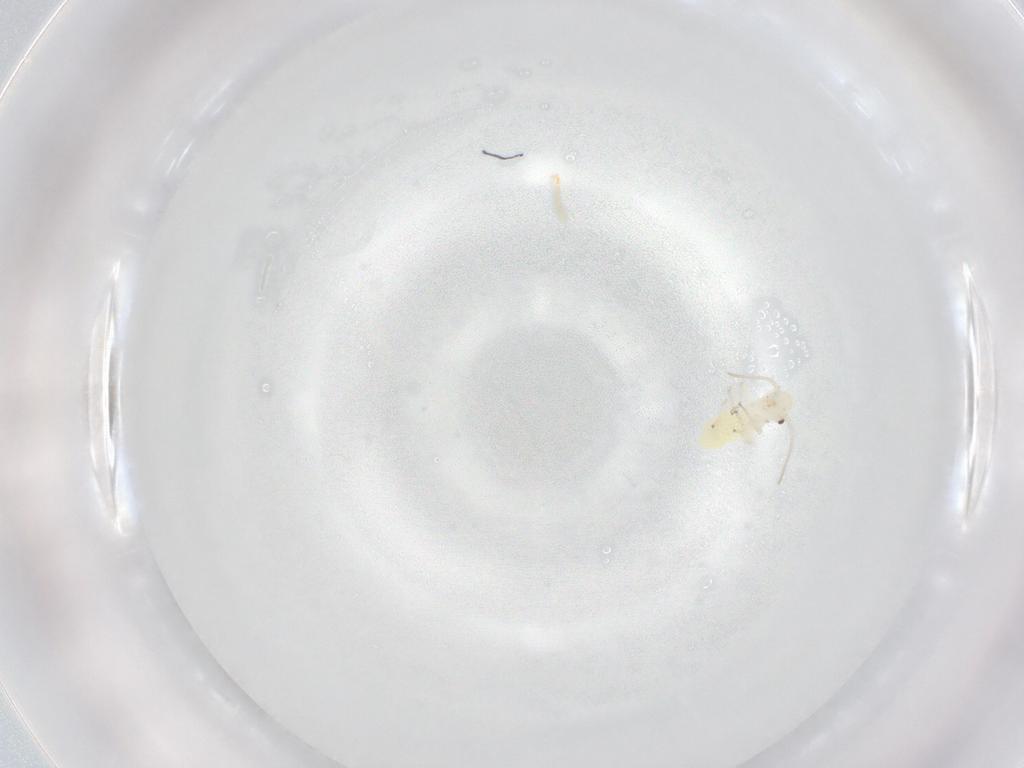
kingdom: Animalia
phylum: Arthropoda
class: Insecta
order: Psocodea
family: Caeciliusidae
